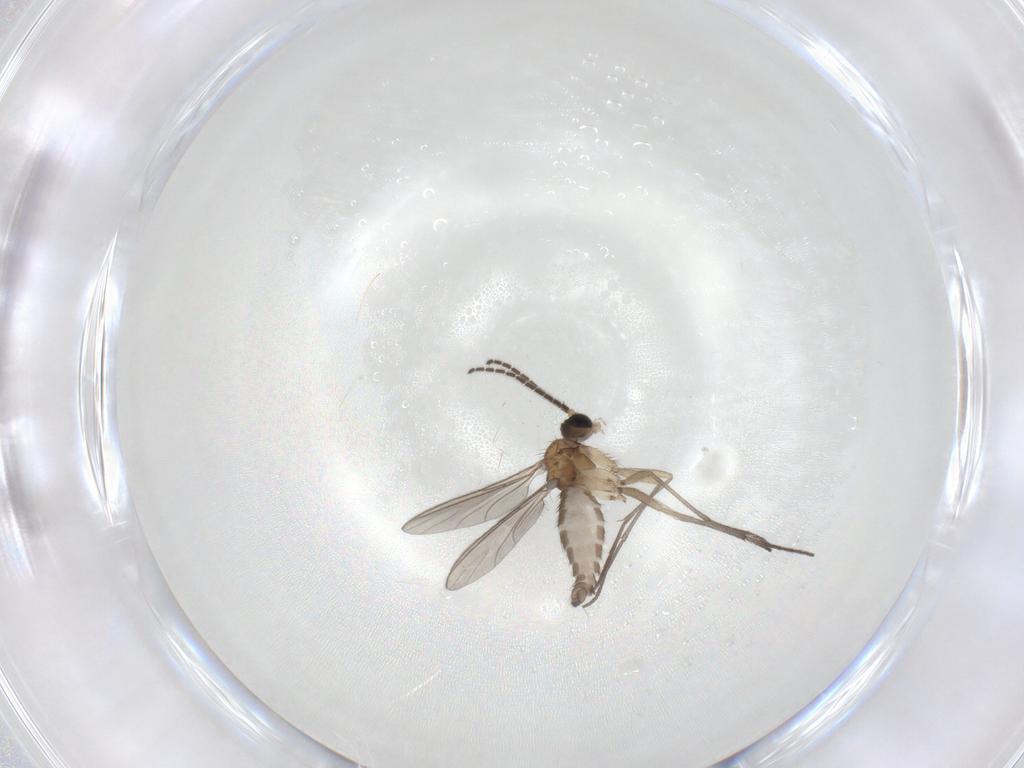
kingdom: Animalia
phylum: Arthropoda
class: Insecta
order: Diptera
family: Sciaridae
